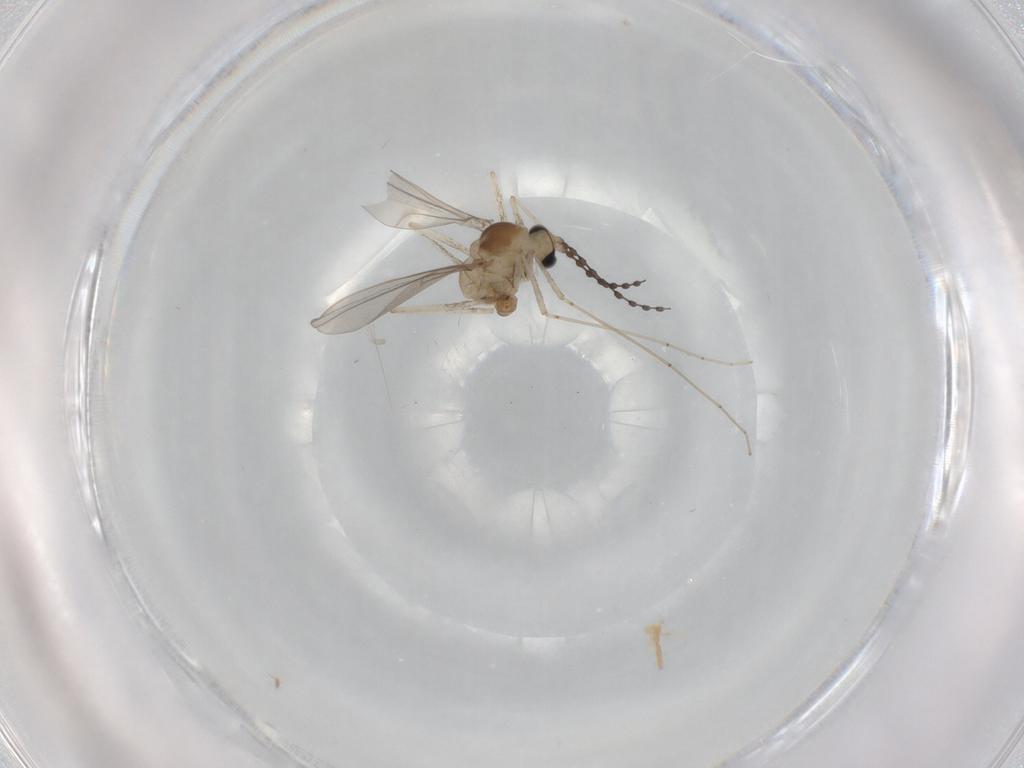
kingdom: Animalia
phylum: Arthropoda
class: Insecta
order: Diptera
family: Cecidomyiidae
